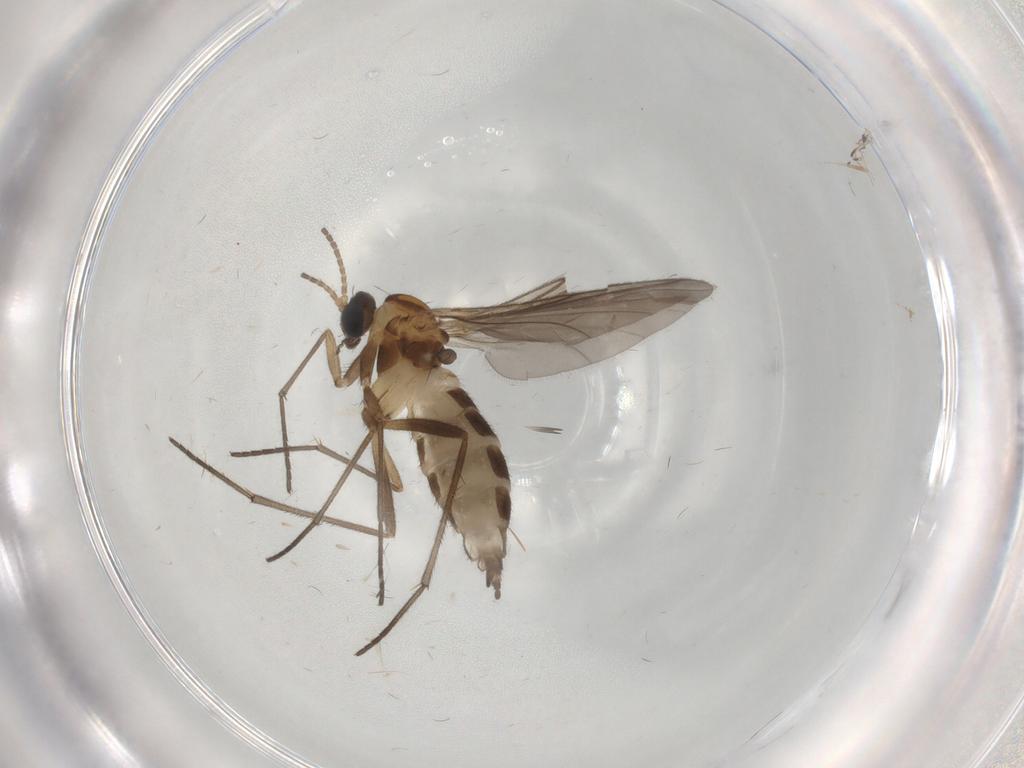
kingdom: Animalia
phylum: Arthropoda
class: Insecta
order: Diptera
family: Sciaridae
